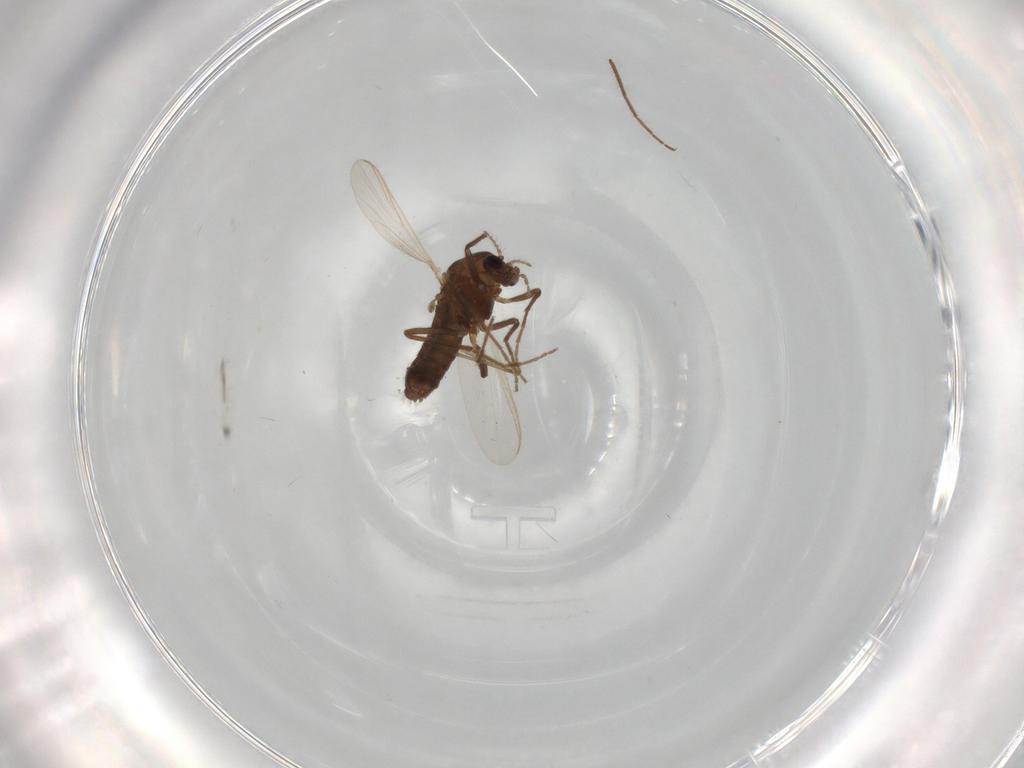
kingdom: Animalia
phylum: Arthropoda
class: Insecta
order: Diptera
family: Chironomidae
